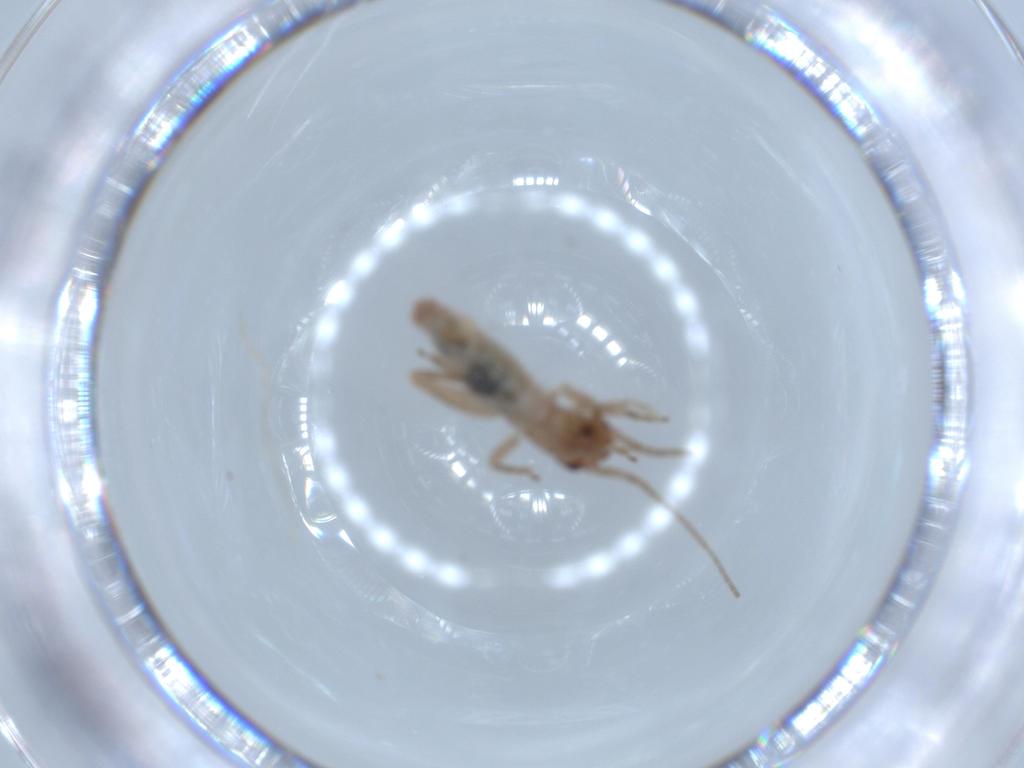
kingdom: Animalia
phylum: Arthropoda
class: Insecta
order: Orthoptera
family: Mogoplistidae
